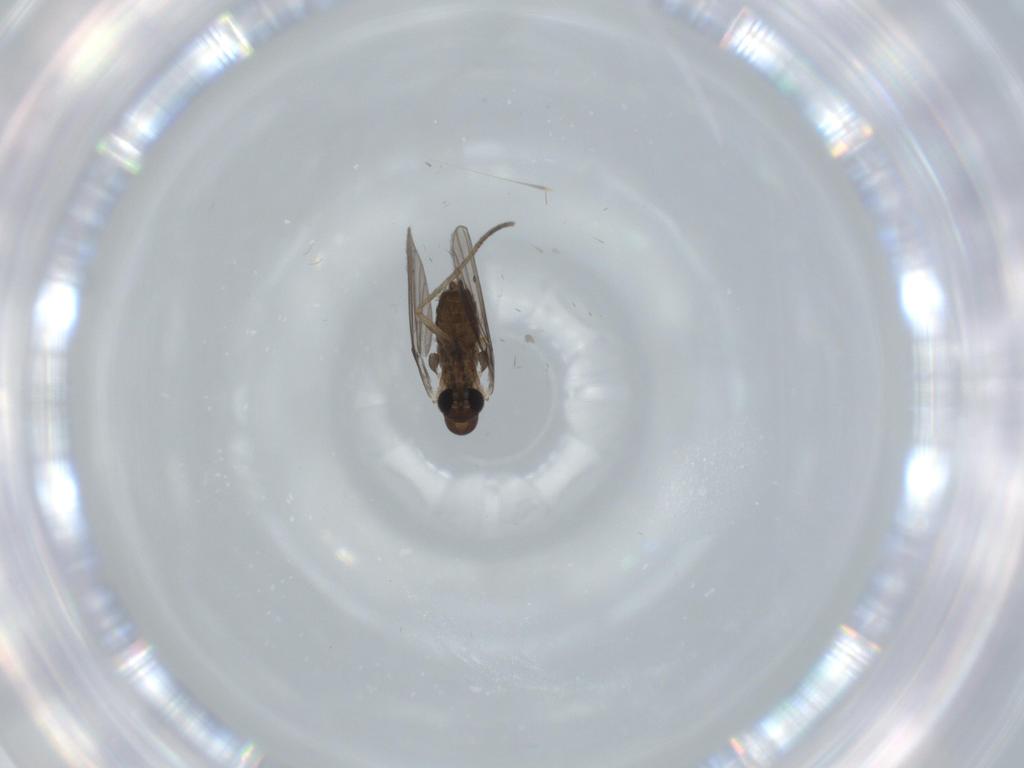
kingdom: Animalia
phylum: Arthropoda
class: Insecta
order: Diptera
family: Psychodidae
